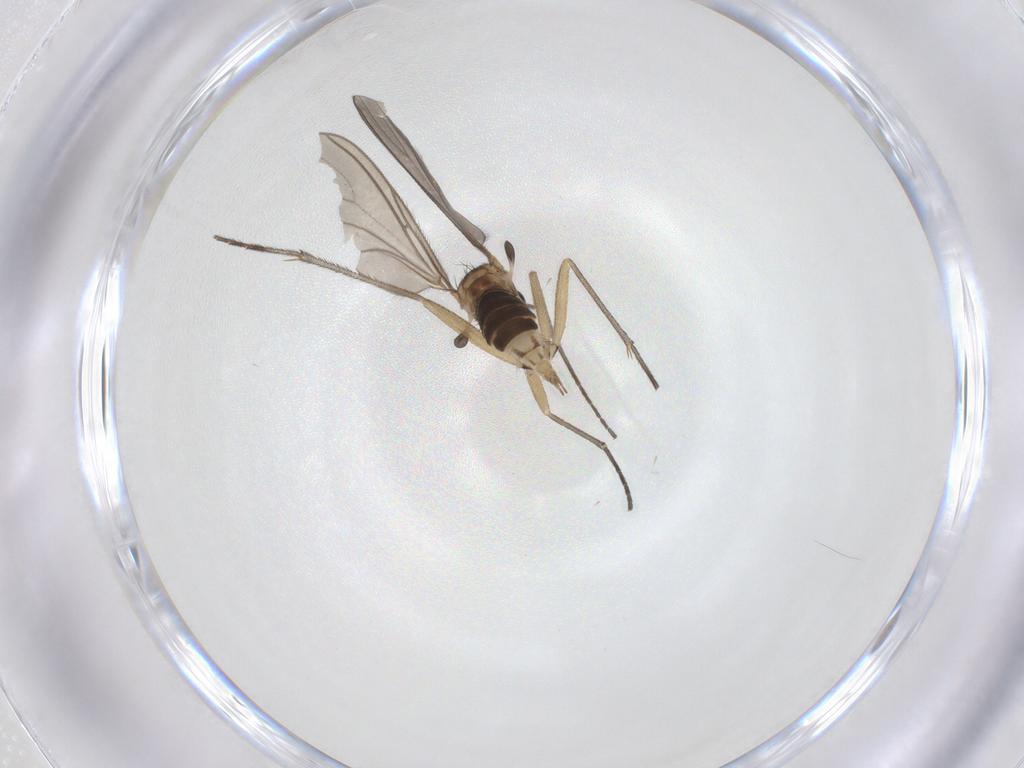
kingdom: Animalia
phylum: Arthropoda
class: Insecta
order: Diptera
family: Sciaridae
